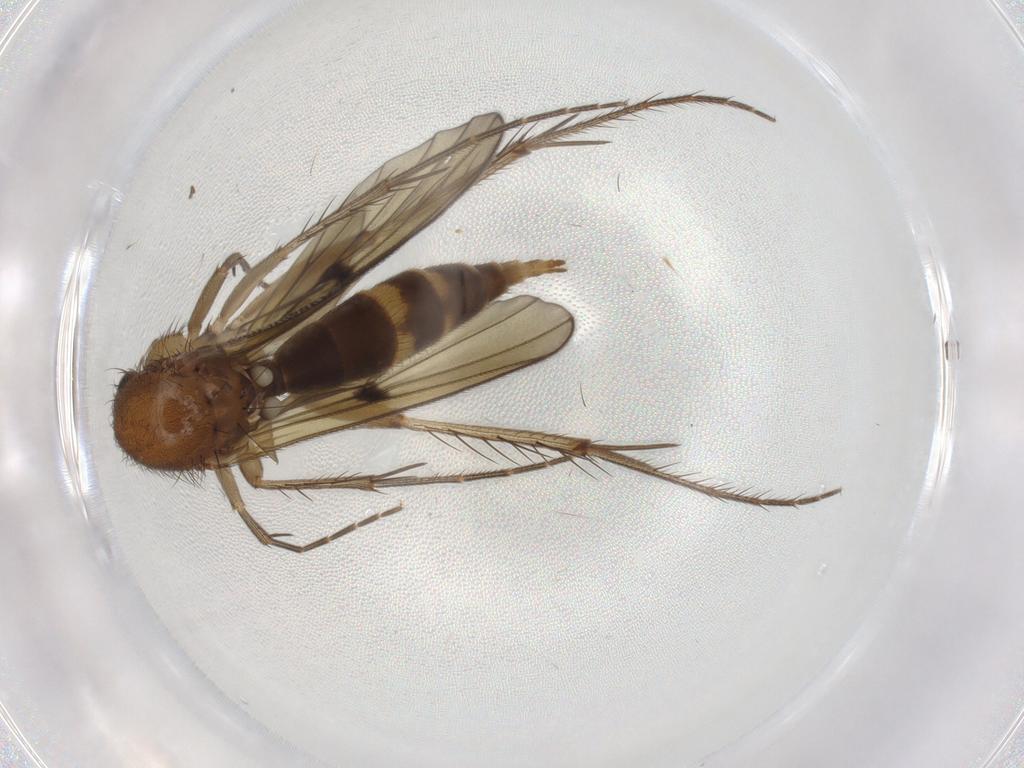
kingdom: Animalia
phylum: Arthropoda
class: Insecta
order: Diptera
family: Mycetophilidae
